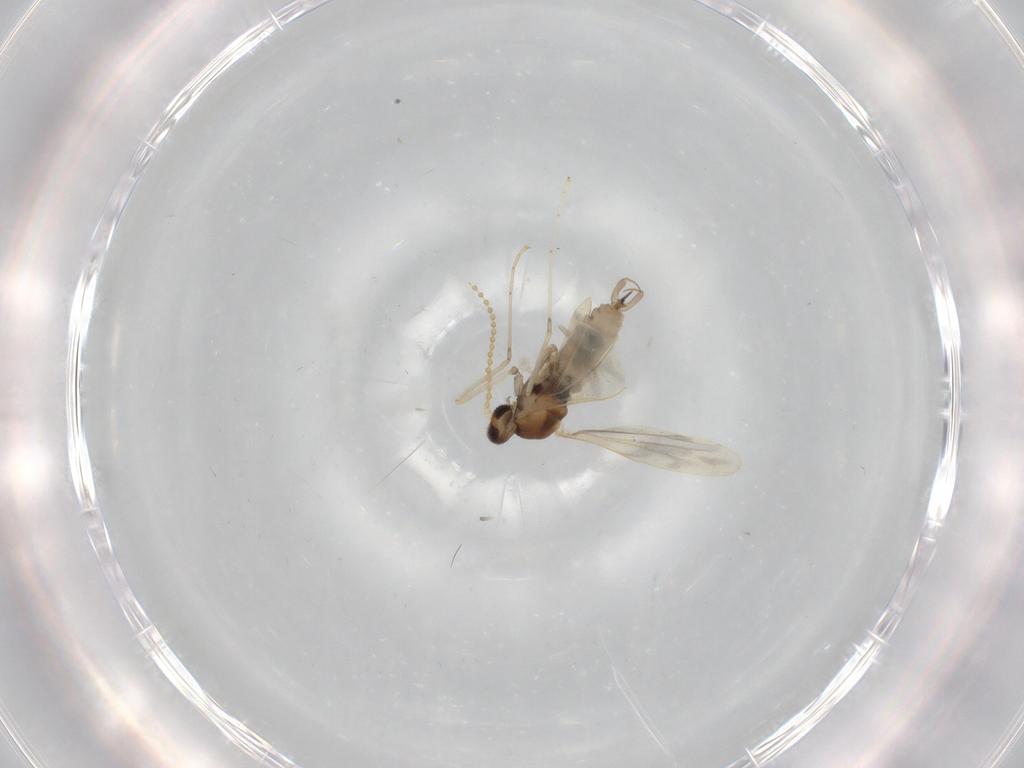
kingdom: Animalia
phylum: Arthropoda
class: Insecta
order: Diptera
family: Cecidomyiidae
